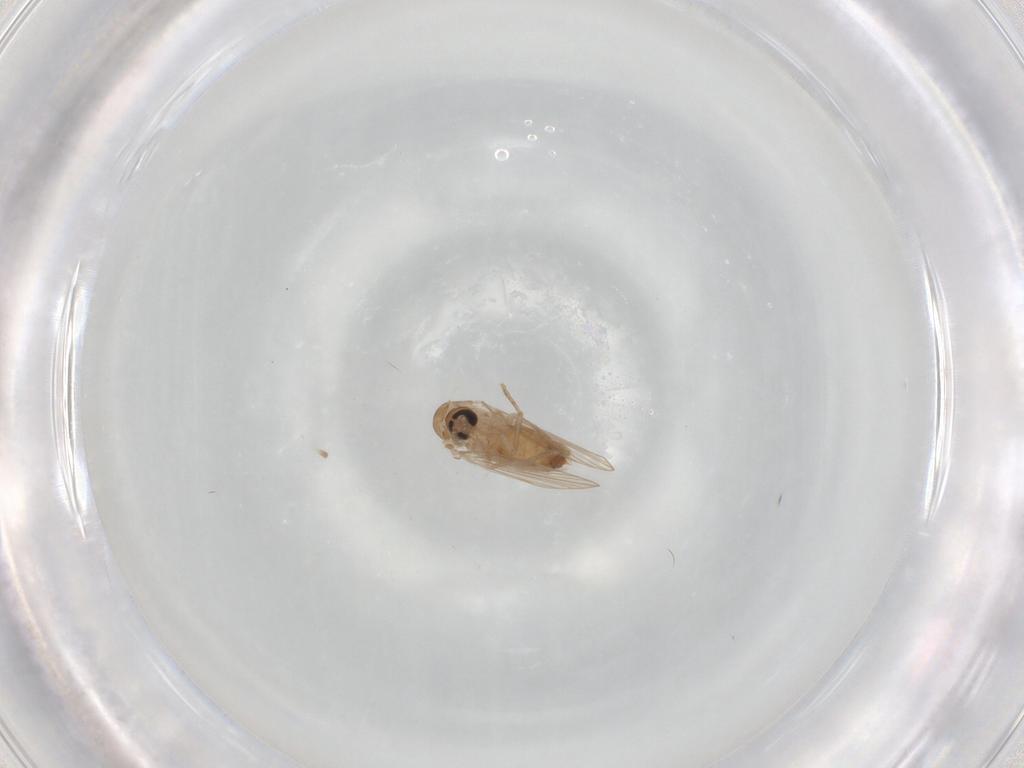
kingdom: Animalia
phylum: Arthropoda
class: Insecta
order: Diptera
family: Psychodidae
